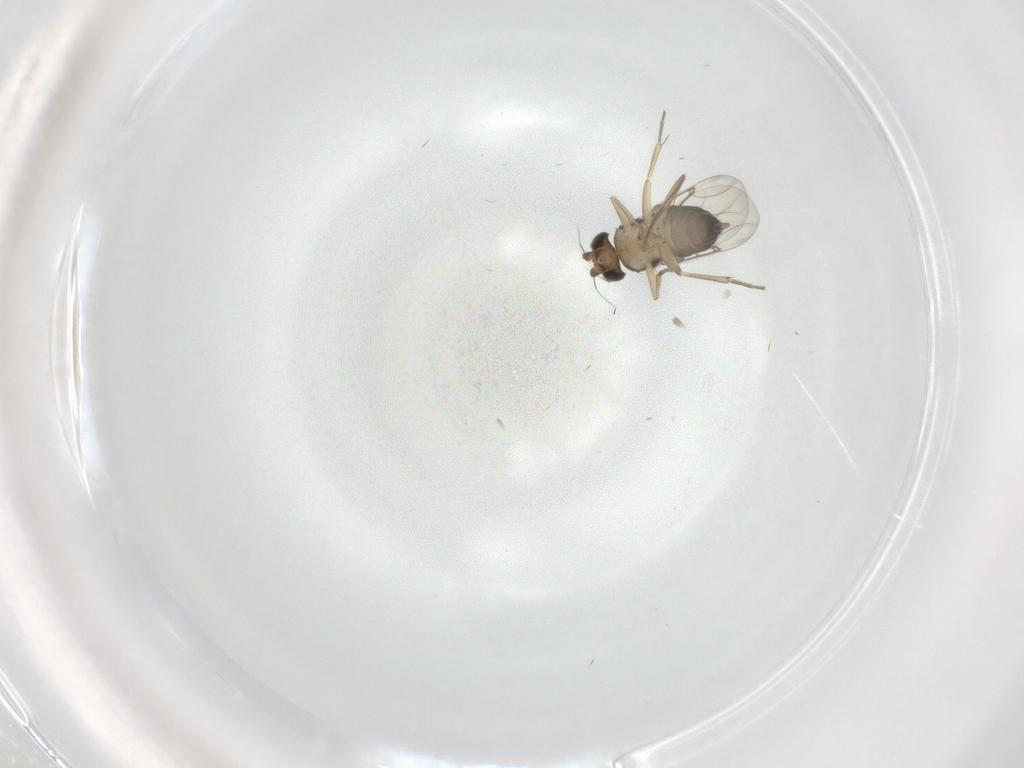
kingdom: Animalia
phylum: Arthropoda
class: Insecta
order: Diptera
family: Phoridae
